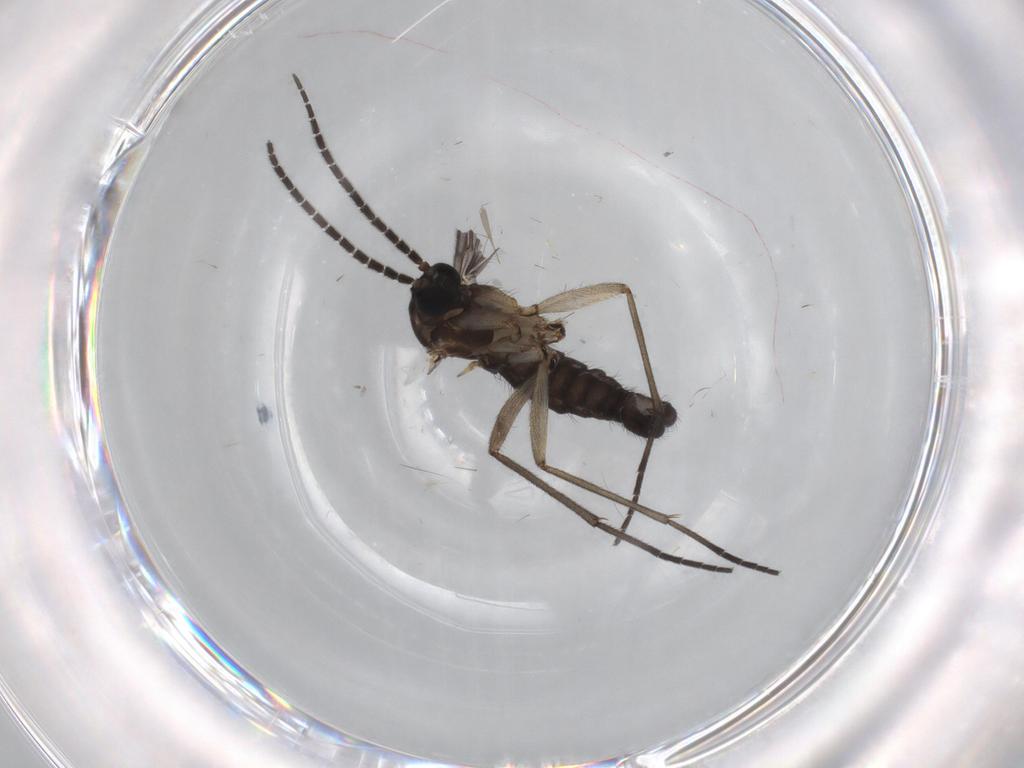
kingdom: Animalia
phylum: Arthropoda
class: Insecta
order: Diptera
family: Sciaridae
